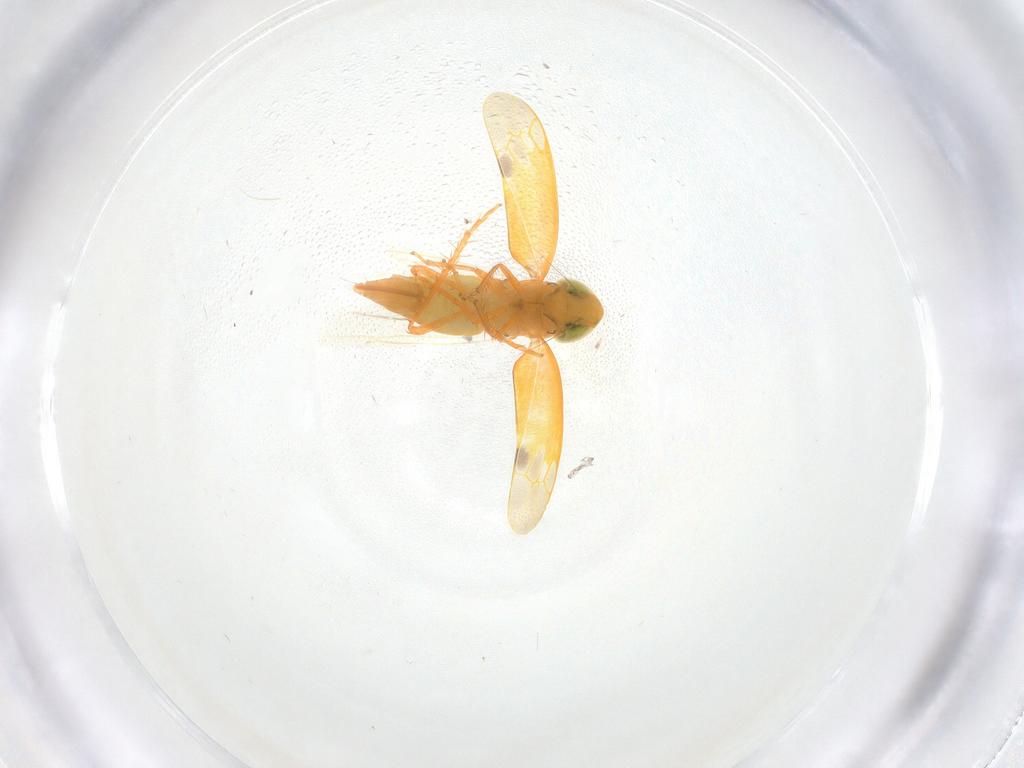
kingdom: Animalia
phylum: Arthropoda
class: Insecta
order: Hemiptera
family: Cicadellidae
